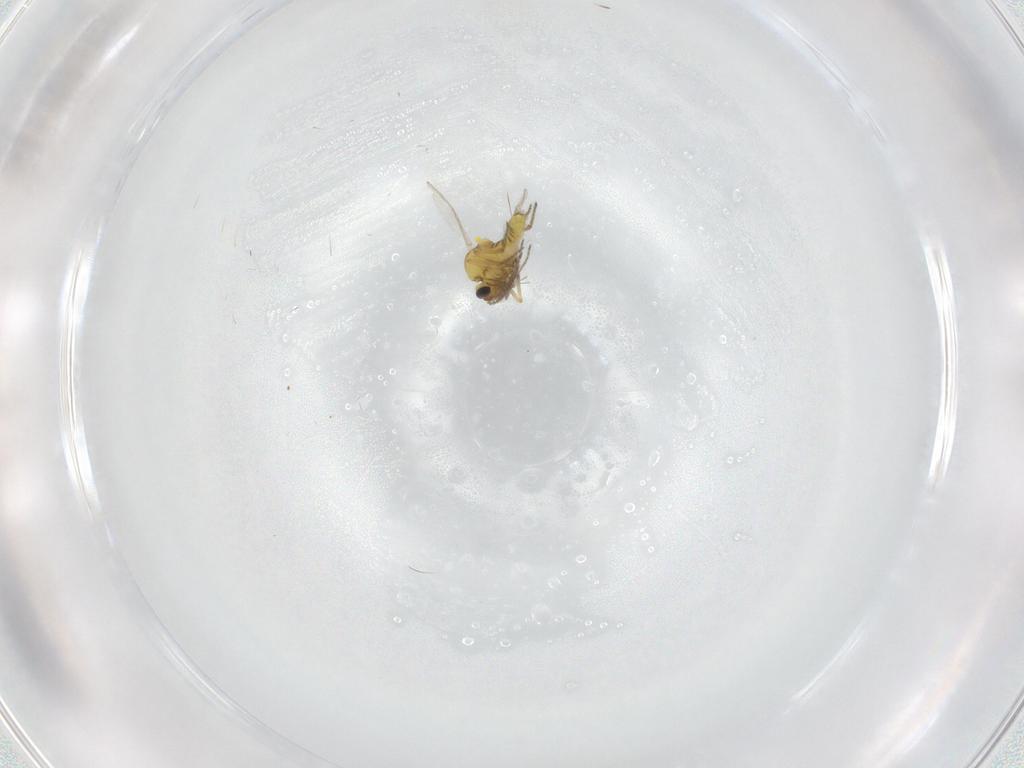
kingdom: Animalia
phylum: Arthropoda
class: Insecta
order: Diptera
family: Ceratopogonidae
